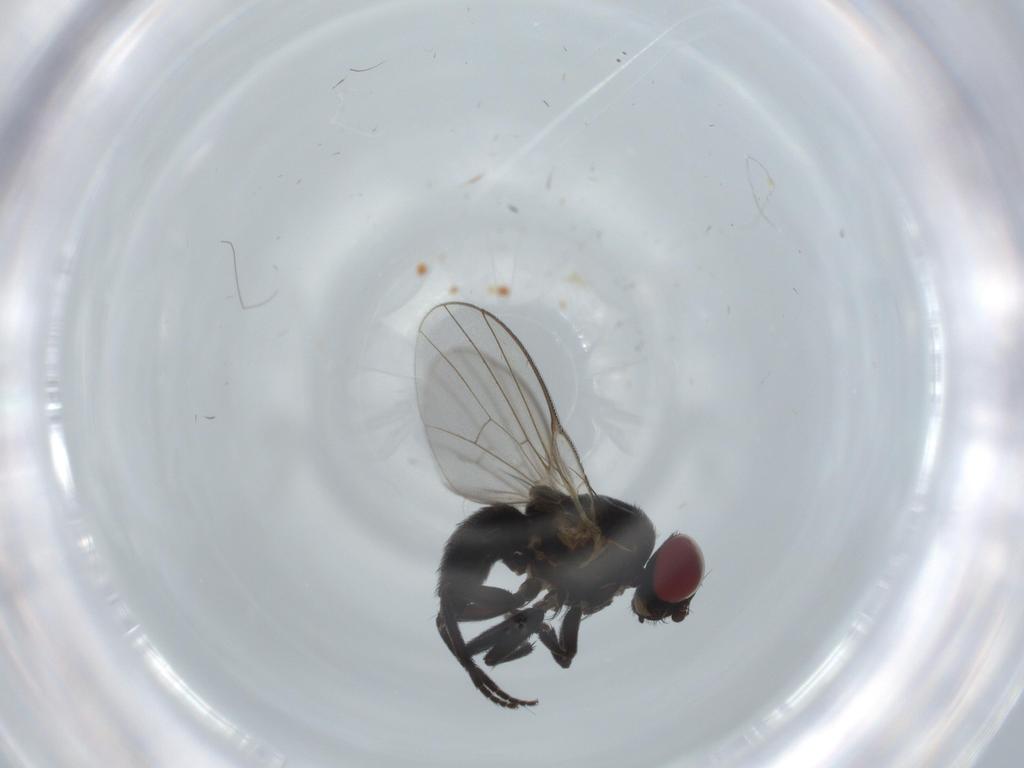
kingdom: Animalia
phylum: Arthropoda
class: Insecta
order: Diptera
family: Agromyzidae
